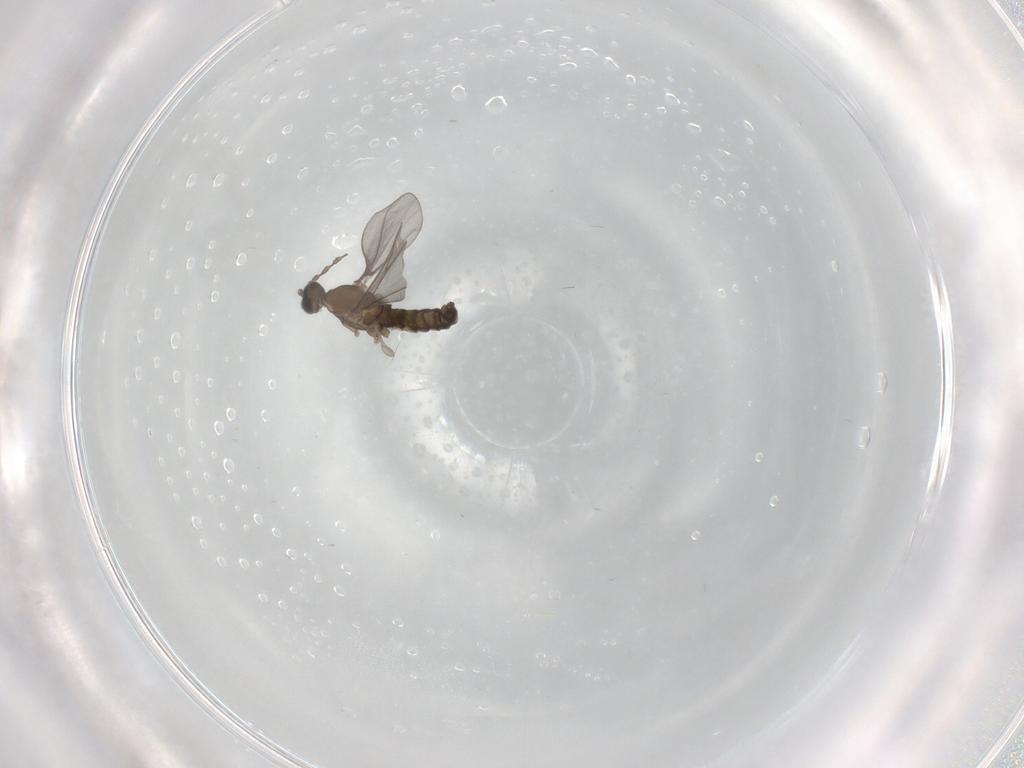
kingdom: Animalia
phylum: Arthropoda
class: Insecta
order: Diptera
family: Cecidomyiidae
